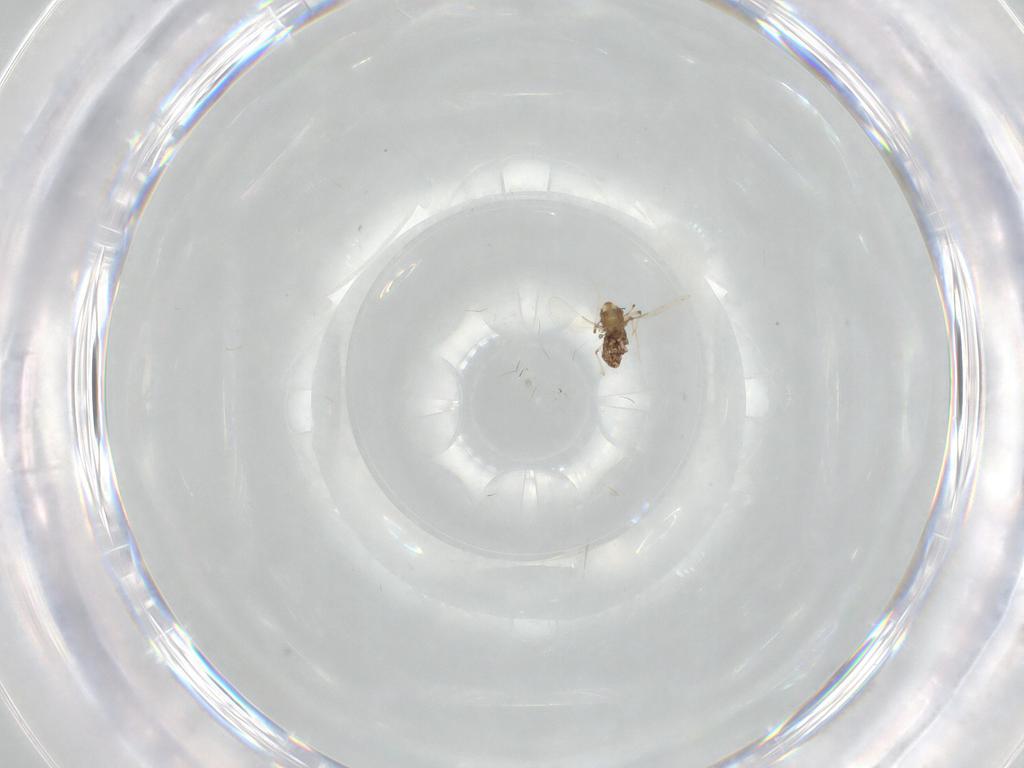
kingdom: Animalia
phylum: Arthropoda
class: Insecta
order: Diptera
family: Chironomidae
